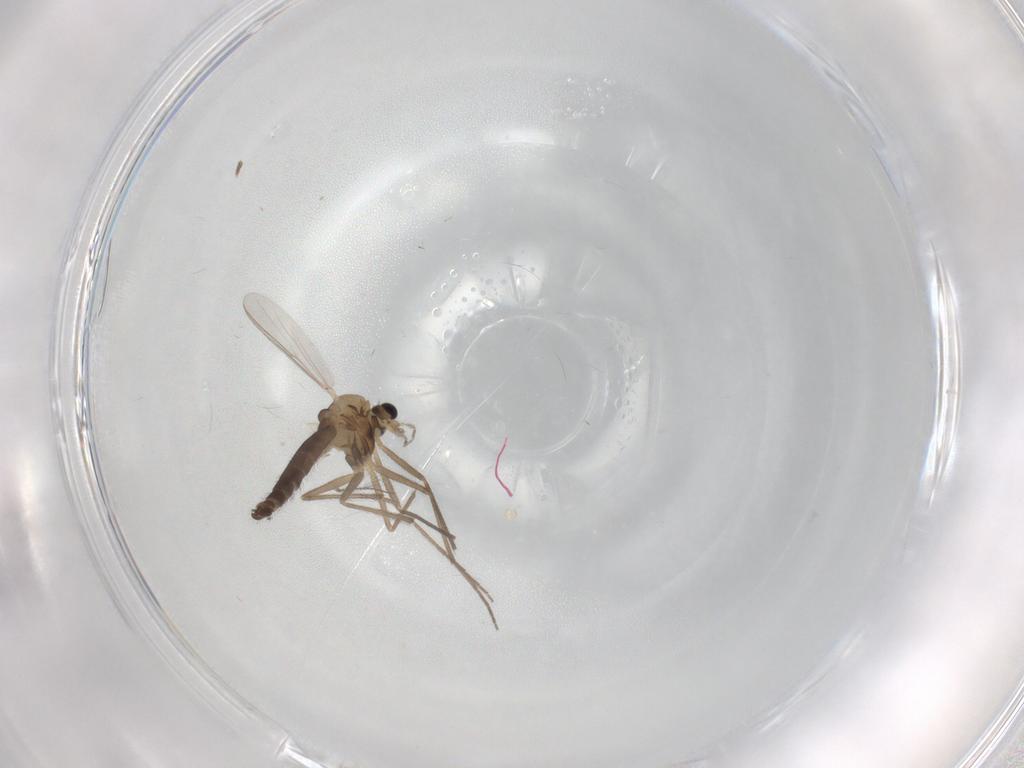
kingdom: Animalia
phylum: Arthropoda
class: Insecta
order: Diptera
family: Chironomidae
